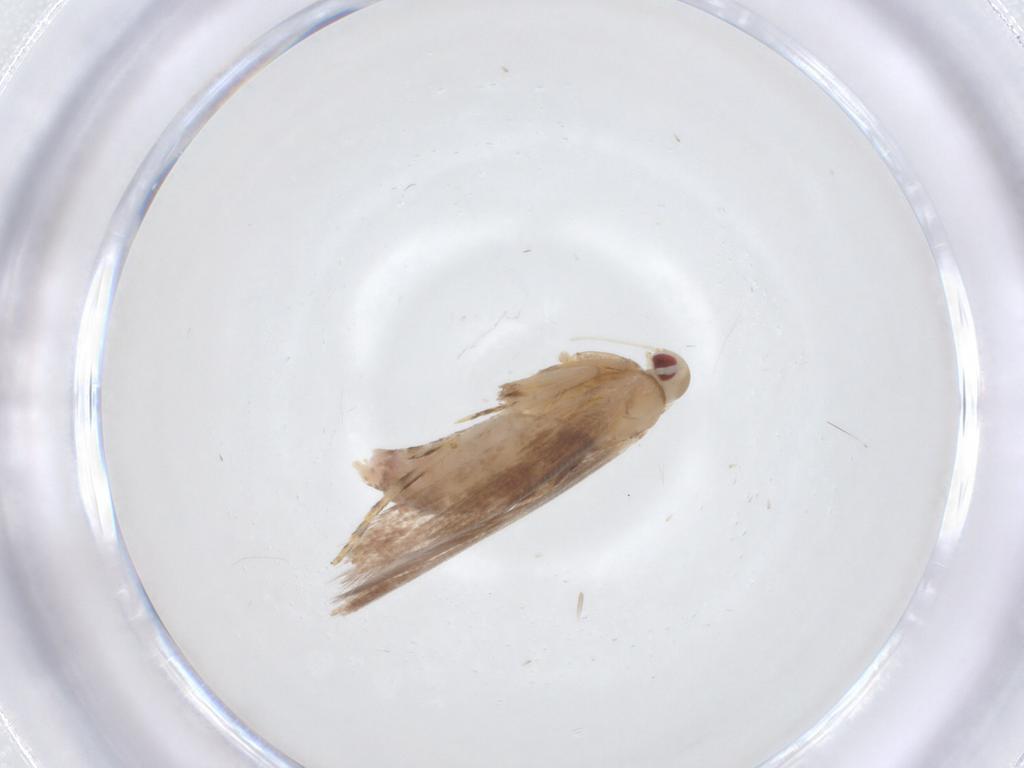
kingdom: Animalia
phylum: Arthropoda
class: Insecta
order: Lepidoptera
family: Cosmopterigidae
